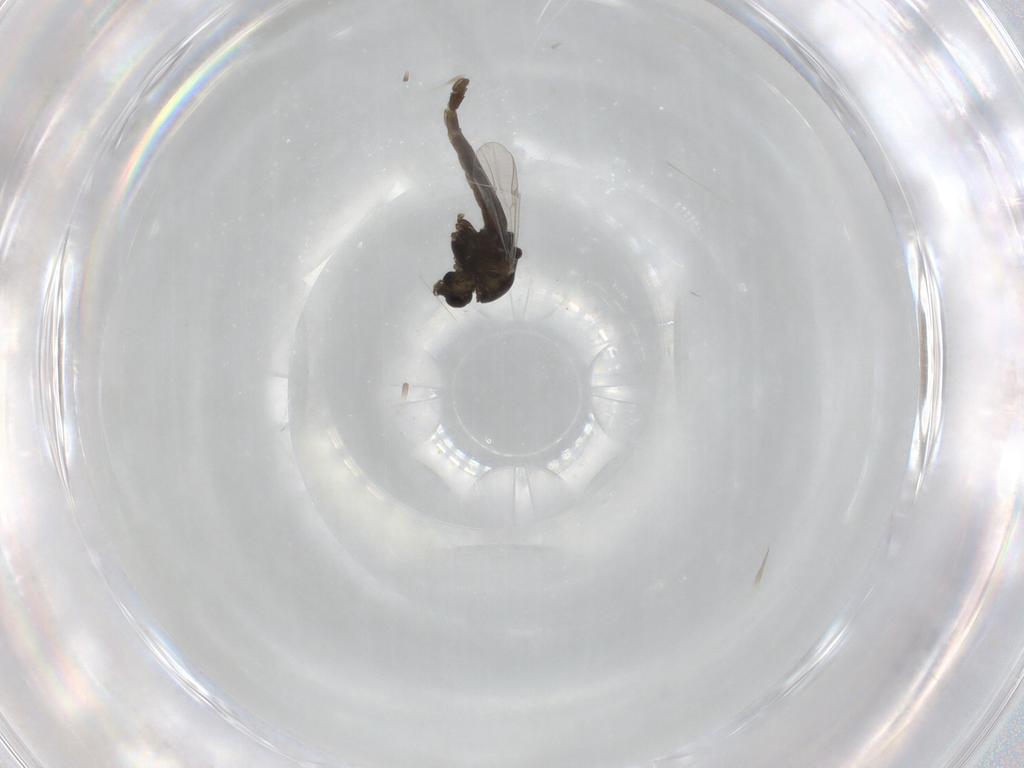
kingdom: Animalia
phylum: Arthropoda
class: Insecta
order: Diptera
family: Chironomidae
